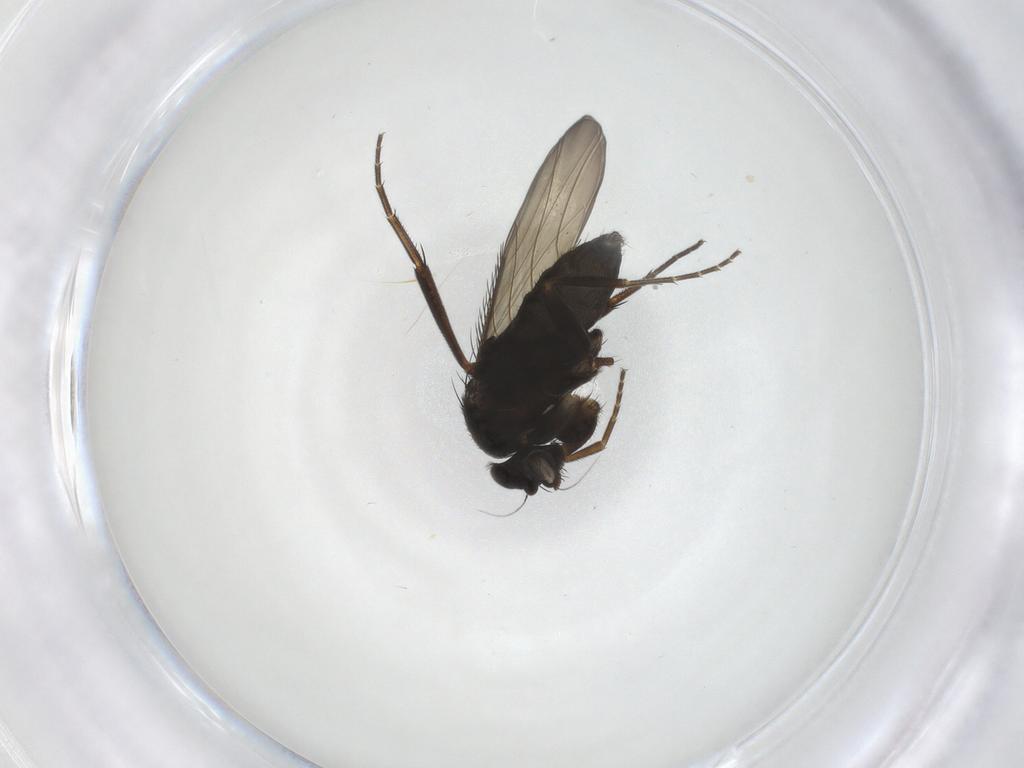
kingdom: Animalia
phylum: Arthropoda
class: Insecta
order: Diptera
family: Phoridae
